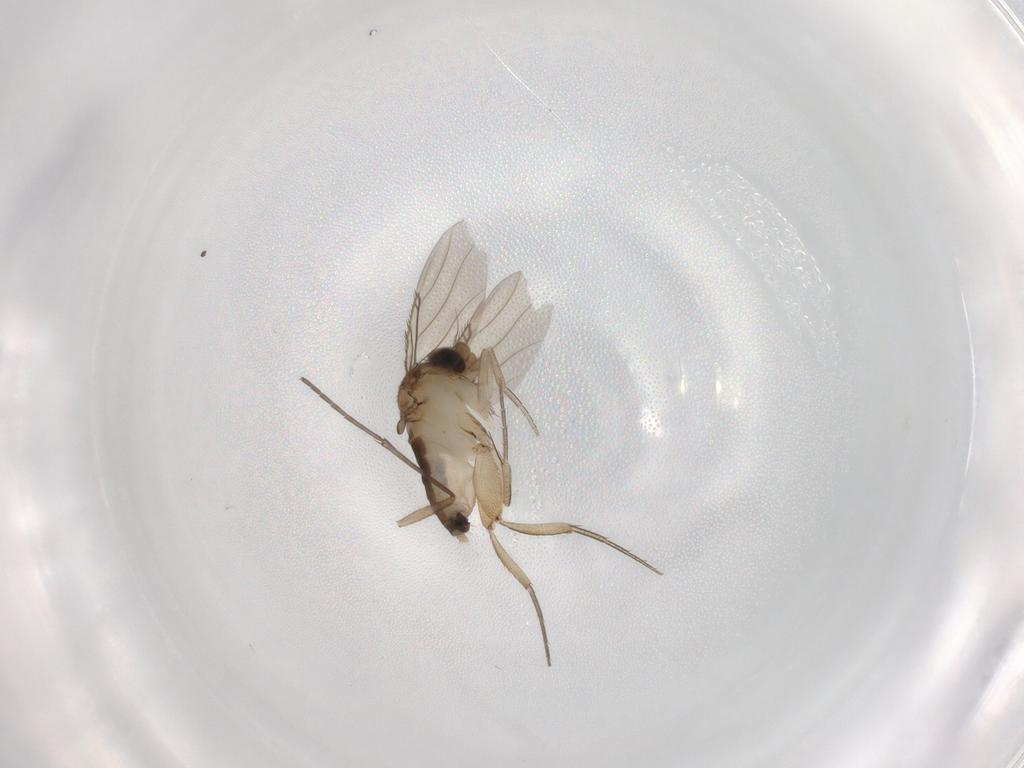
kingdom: Animalia
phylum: Arthropoda
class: Insecta
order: Diptera
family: Phoridae
